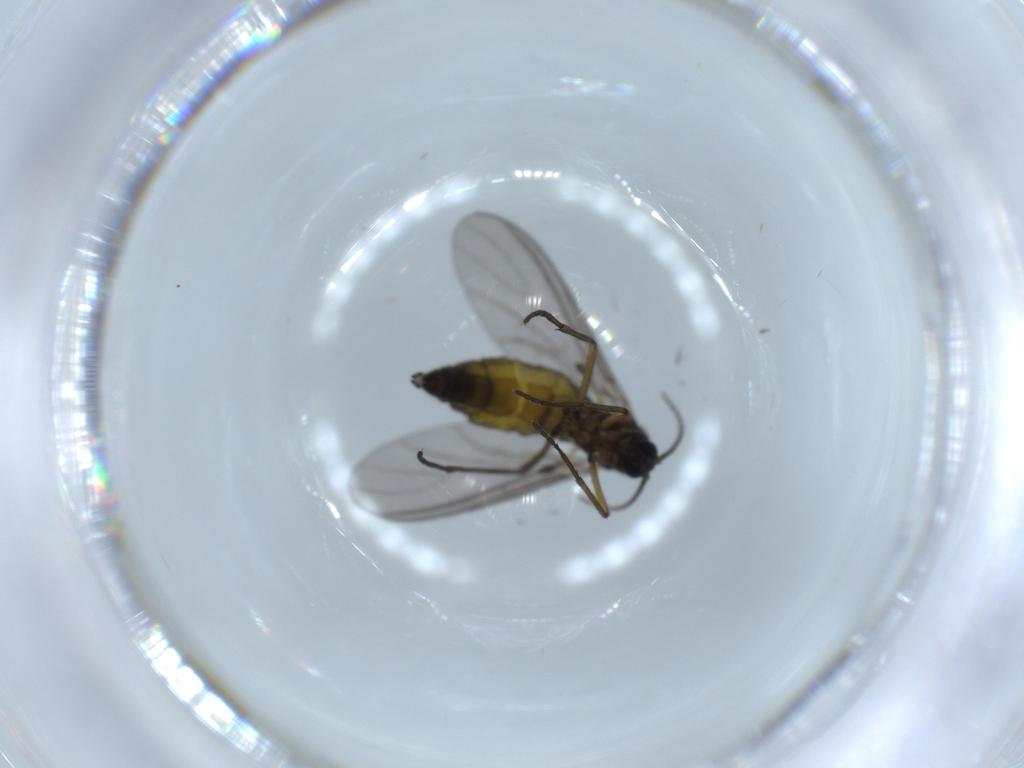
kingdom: Animalia
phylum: Arthropoda
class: Insecta
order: Diptera
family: Sciaridae
